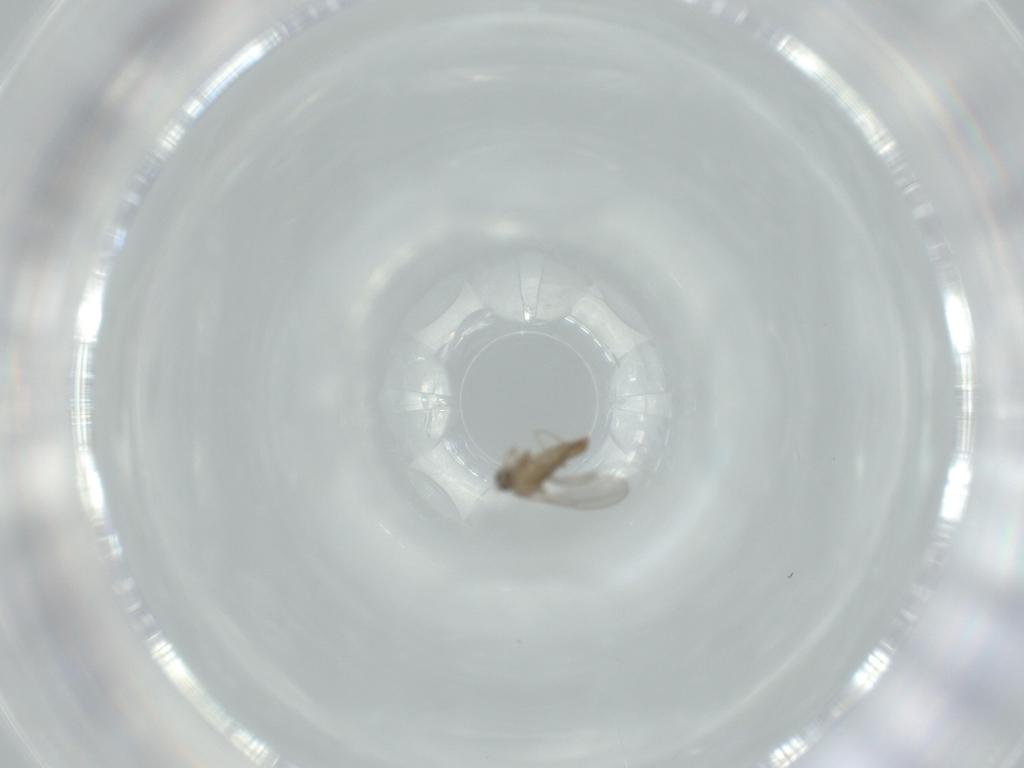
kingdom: Animalia
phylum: Arthropoda
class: Insecta
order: Diptera
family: Cecidomyiidae
